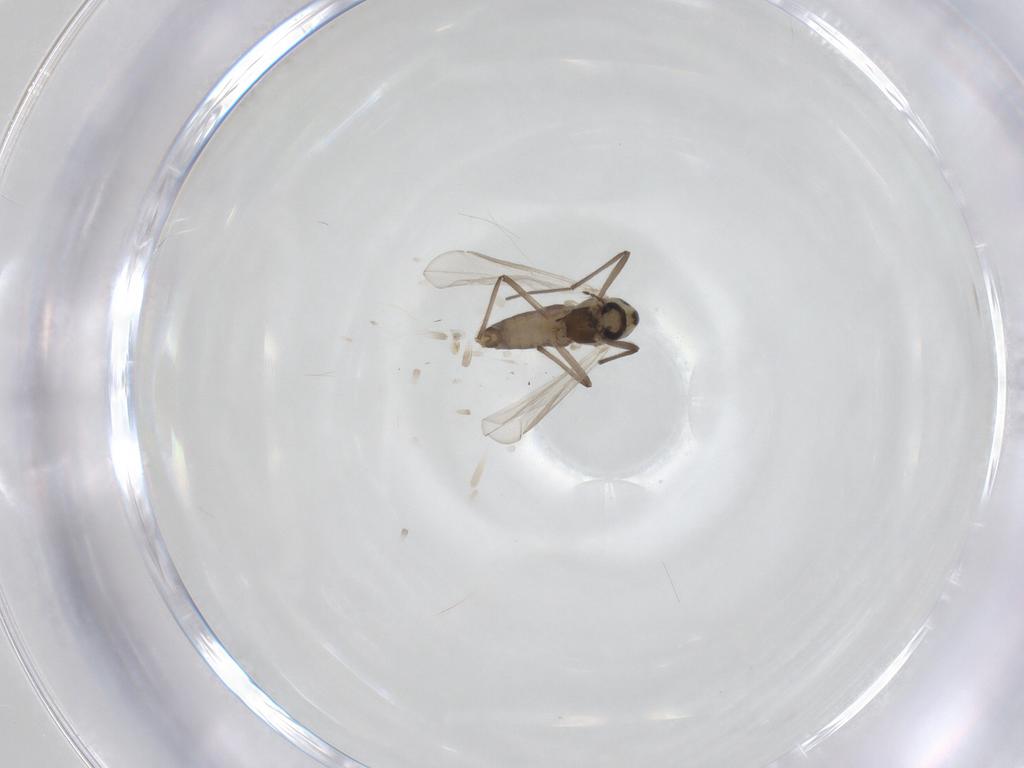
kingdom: Animalia
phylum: Arthropoda
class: Insecta
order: Diptera
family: Chironomidae
